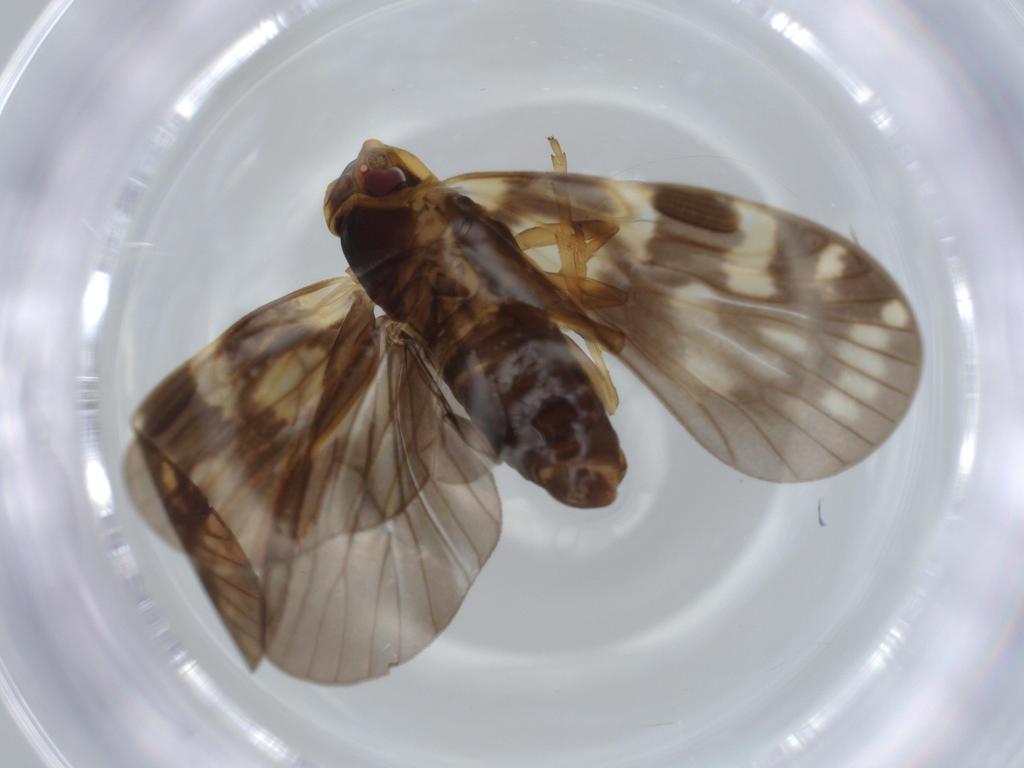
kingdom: Animalia
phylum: Arthropoda
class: Insecta
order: Hemiptera
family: Cixiidae
